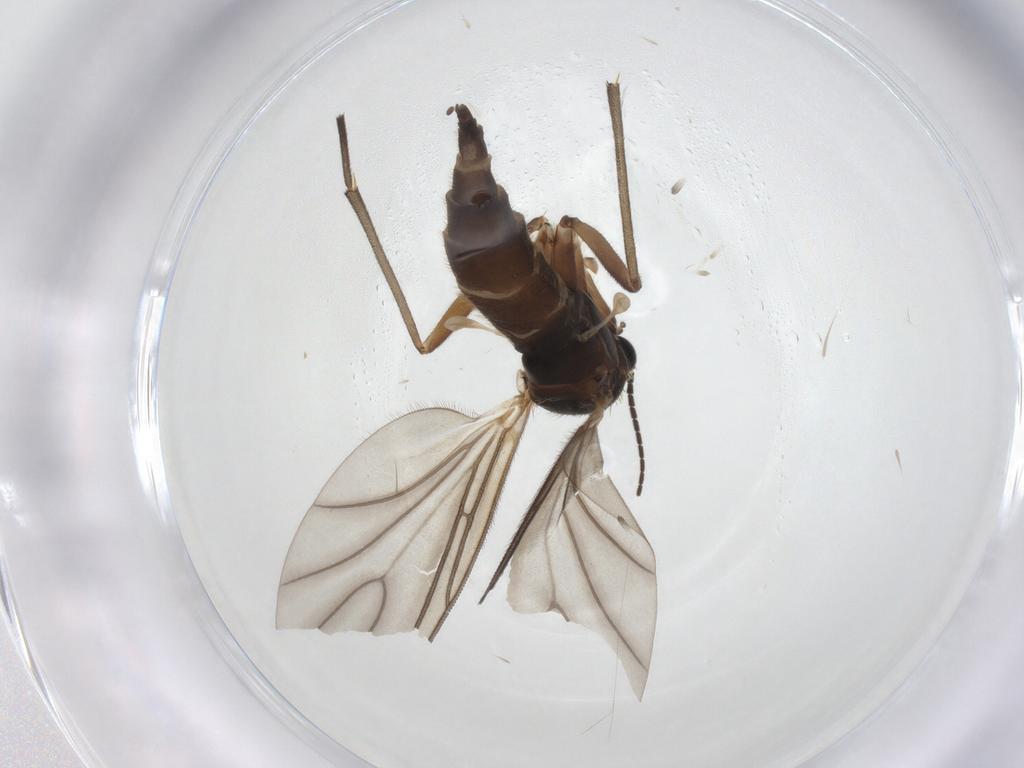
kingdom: Animalia
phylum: Arthropoda
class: Insecta
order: Diptera
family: Sciaridae
